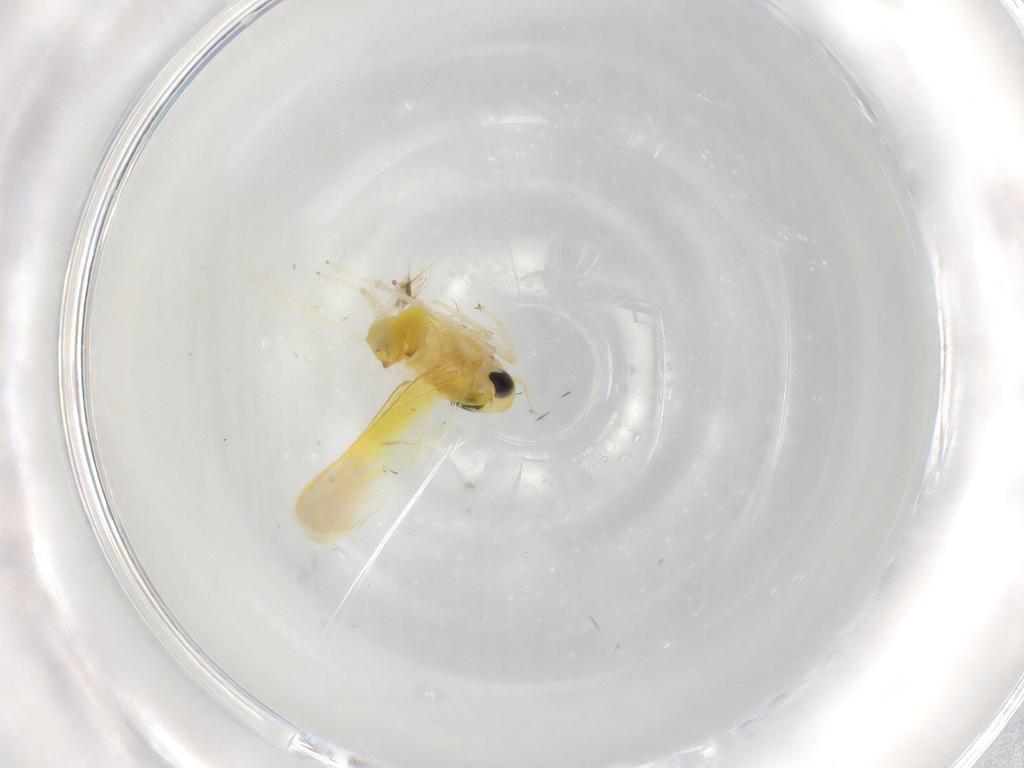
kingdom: Animalia
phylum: Arthropoda
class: Insecta
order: Hemiptera
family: Cicadellidae
